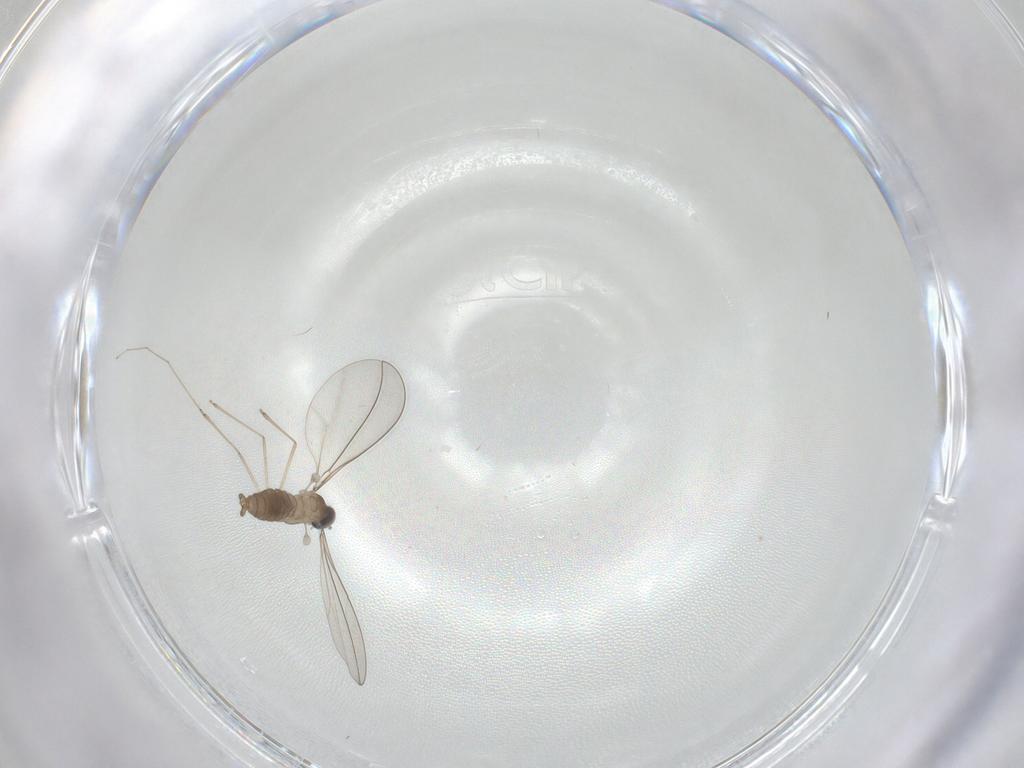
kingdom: Animalia
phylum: Arthropoda
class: Insecta
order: Diptera
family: Cecidomyiidae
